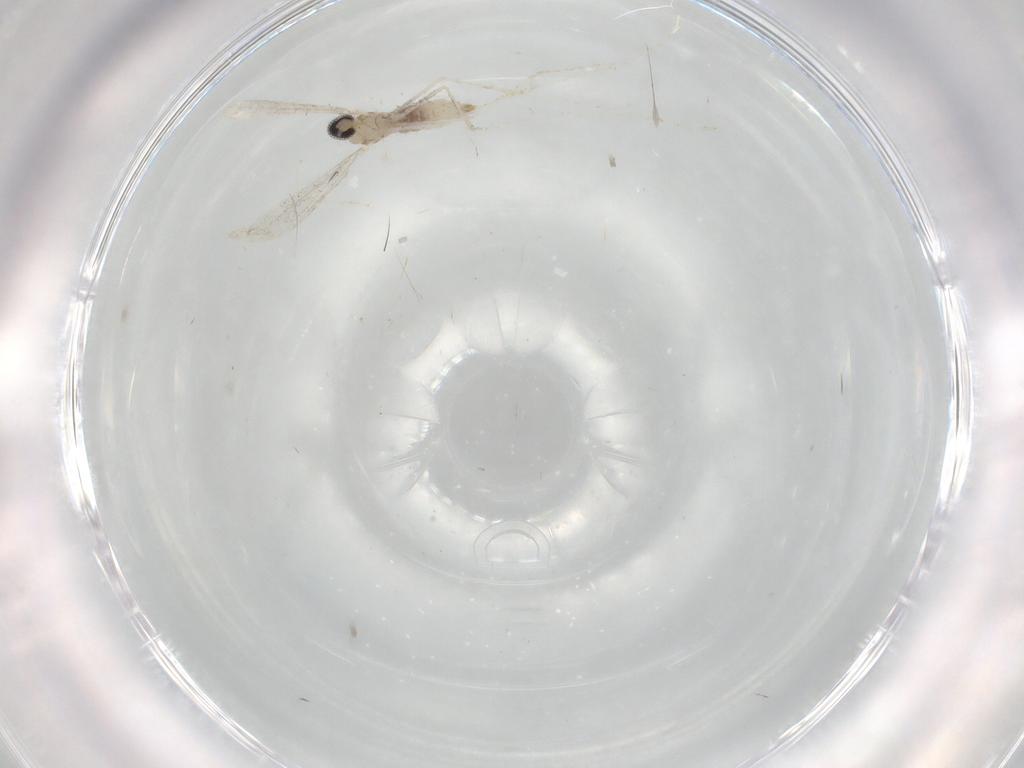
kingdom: Animalia
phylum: Arthropoda
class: Insecta
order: Diptera
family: Cecidomyiidae
